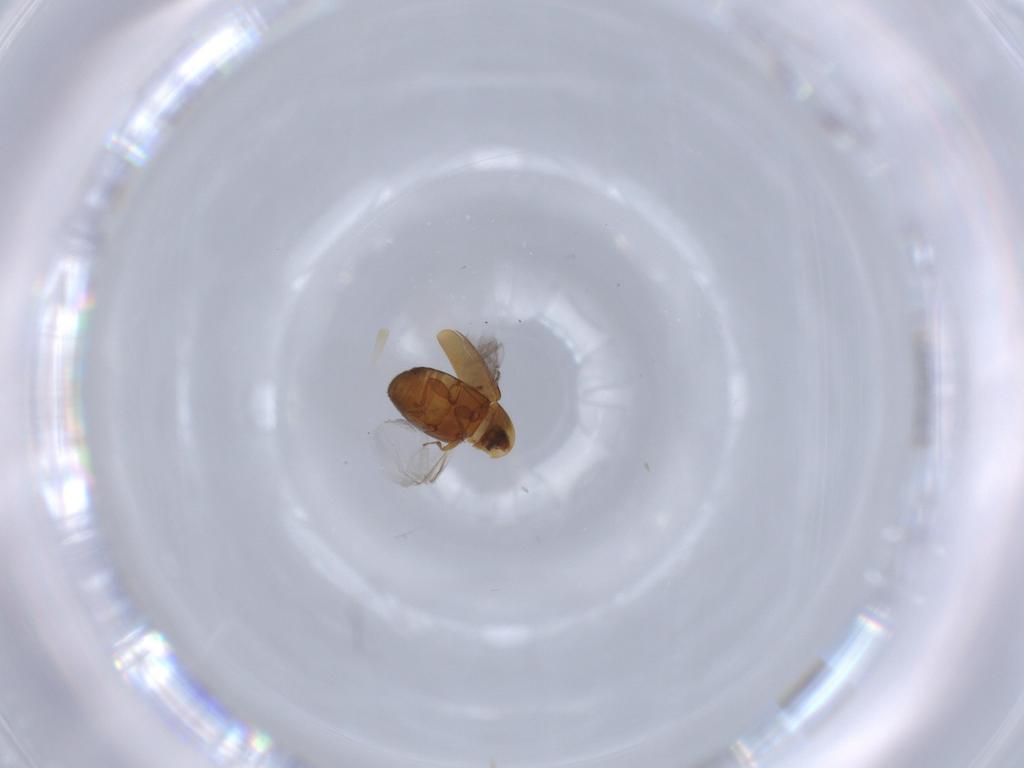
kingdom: Animalia
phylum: Arthropoda
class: Insecta
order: Coleoptera
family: Corylophidae
